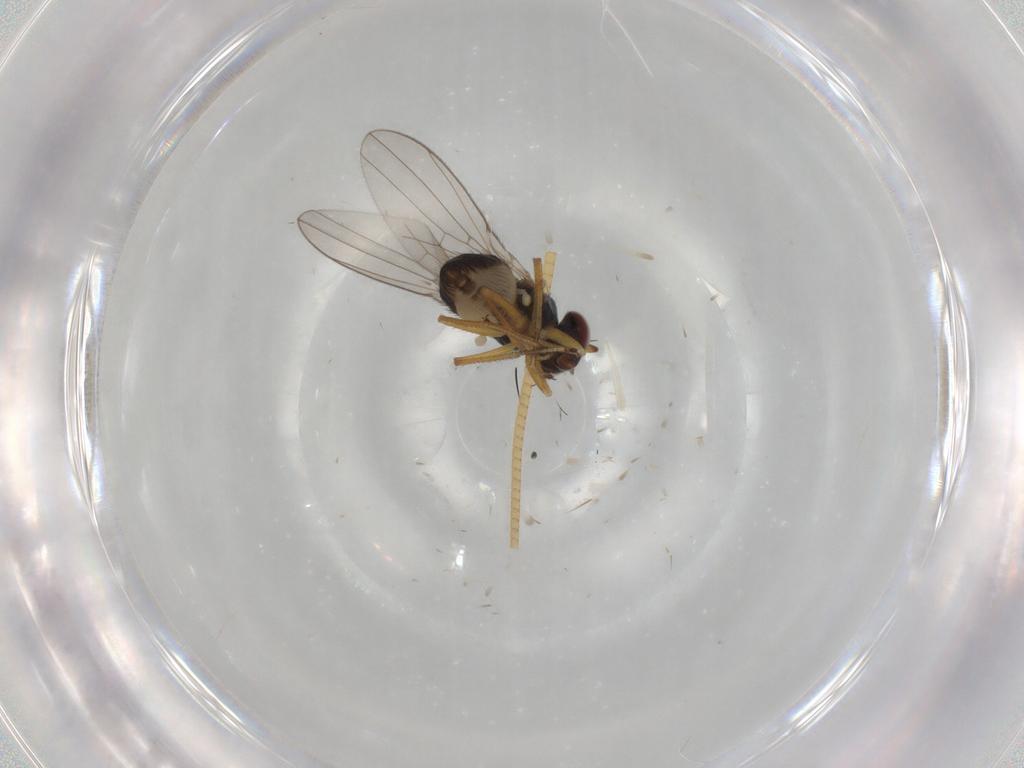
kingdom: Animalia
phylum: Arthropoda
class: Insecta
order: Diptera
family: Ephydridae
